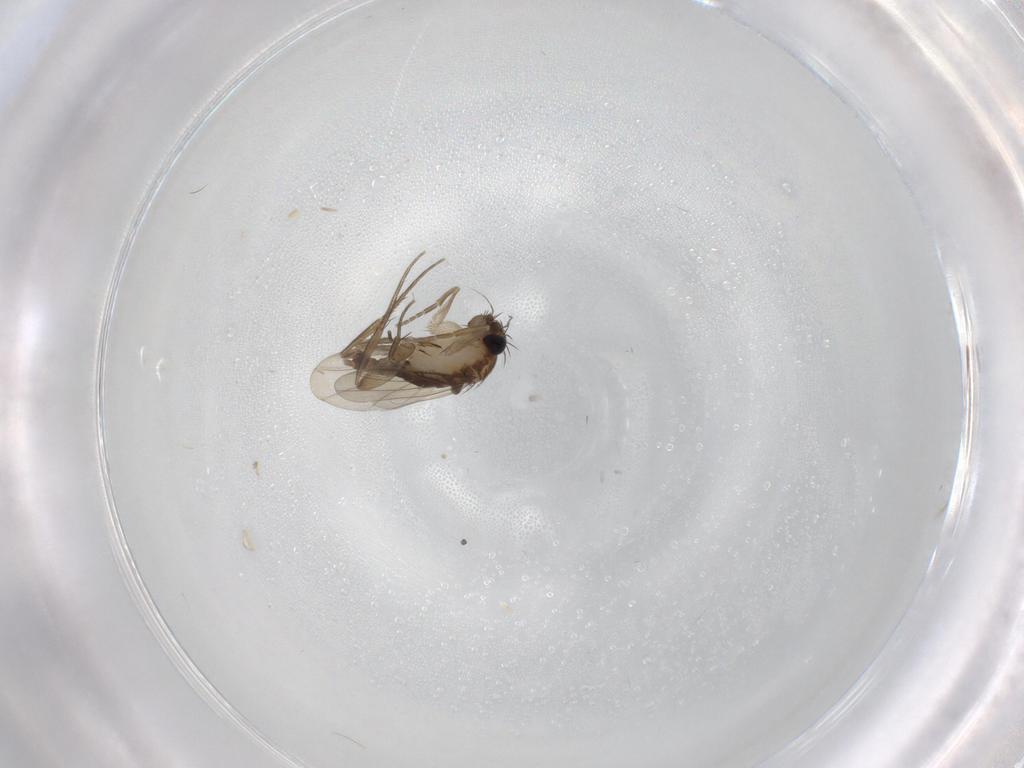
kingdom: Animalia
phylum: Arthropoda
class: Insecta
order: Diptera
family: Phoridae
